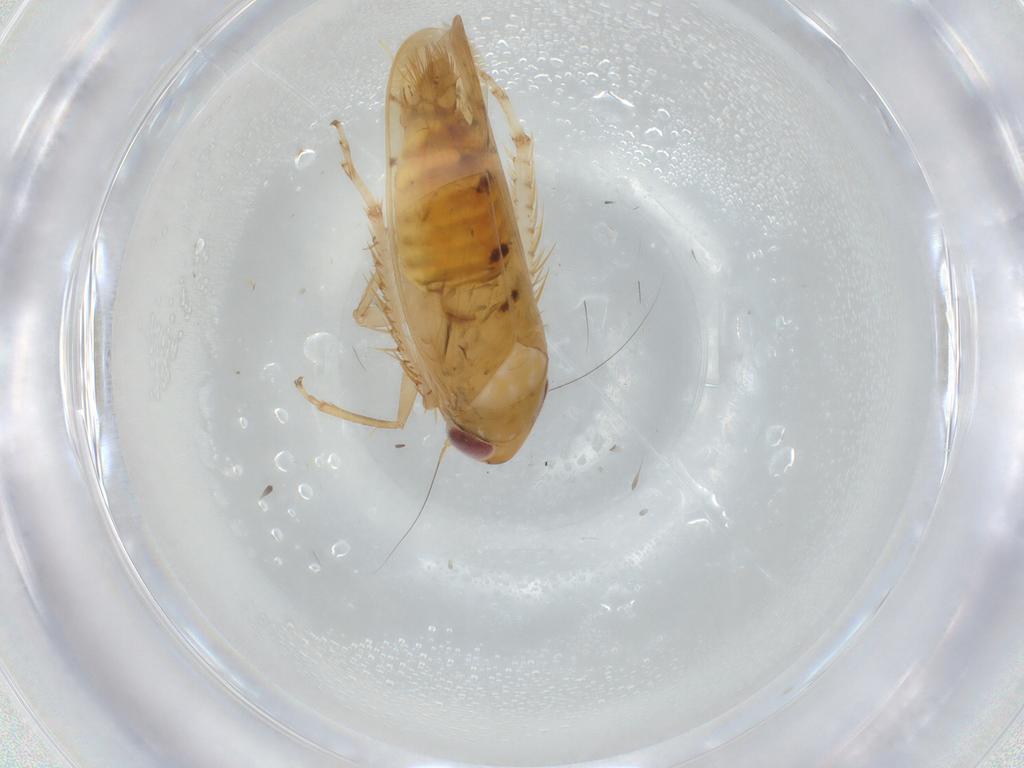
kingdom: Animalia
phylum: Arthropoda
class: Insecta
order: Hemiptera
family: Cicadellidae
